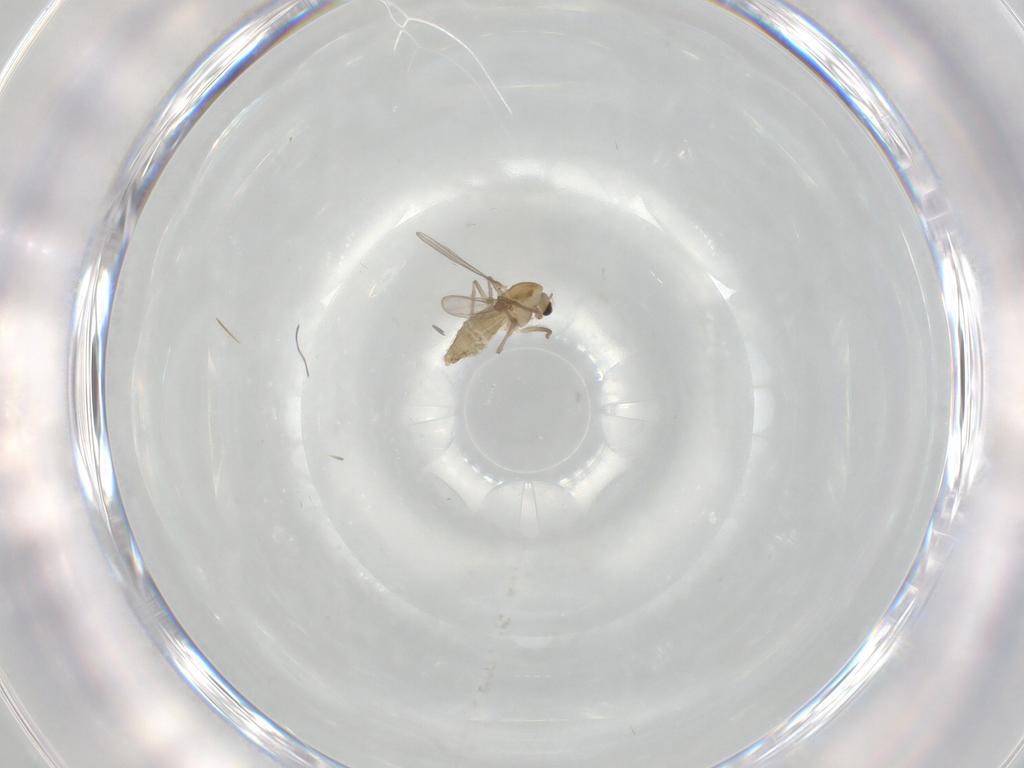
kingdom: Animalia
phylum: Arthropoda
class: Insecta
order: Diptera
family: Chironomidae
